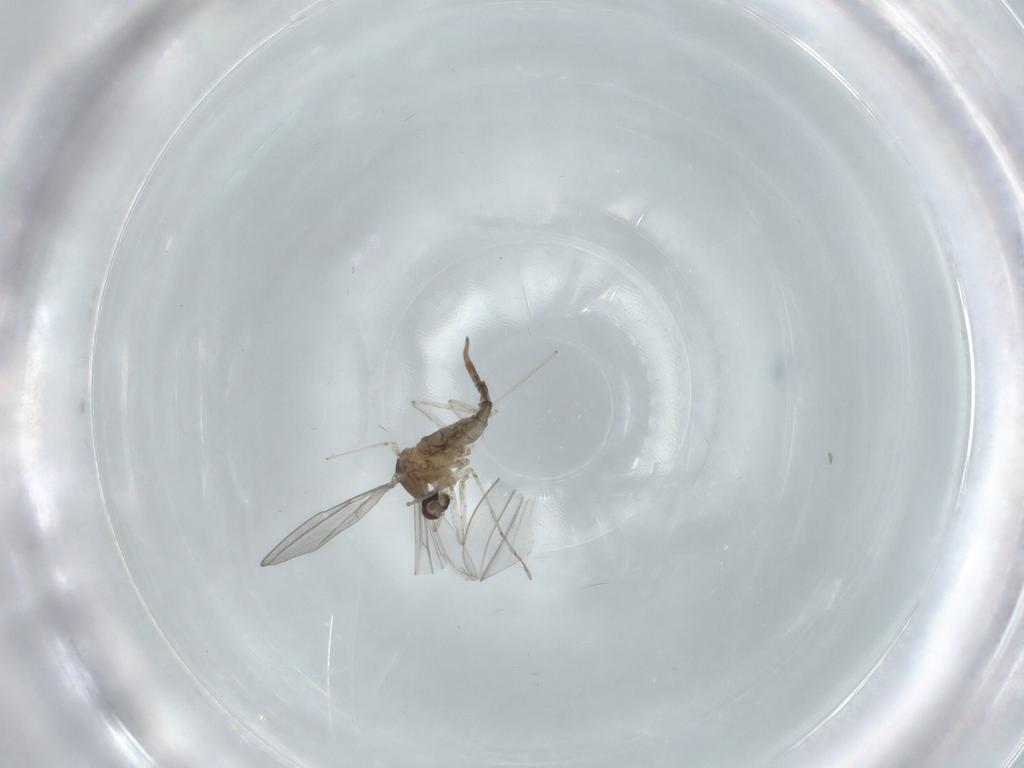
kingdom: Animalia
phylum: Arthropoda
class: Insecta
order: Diptera
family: Cecidomyiidae
